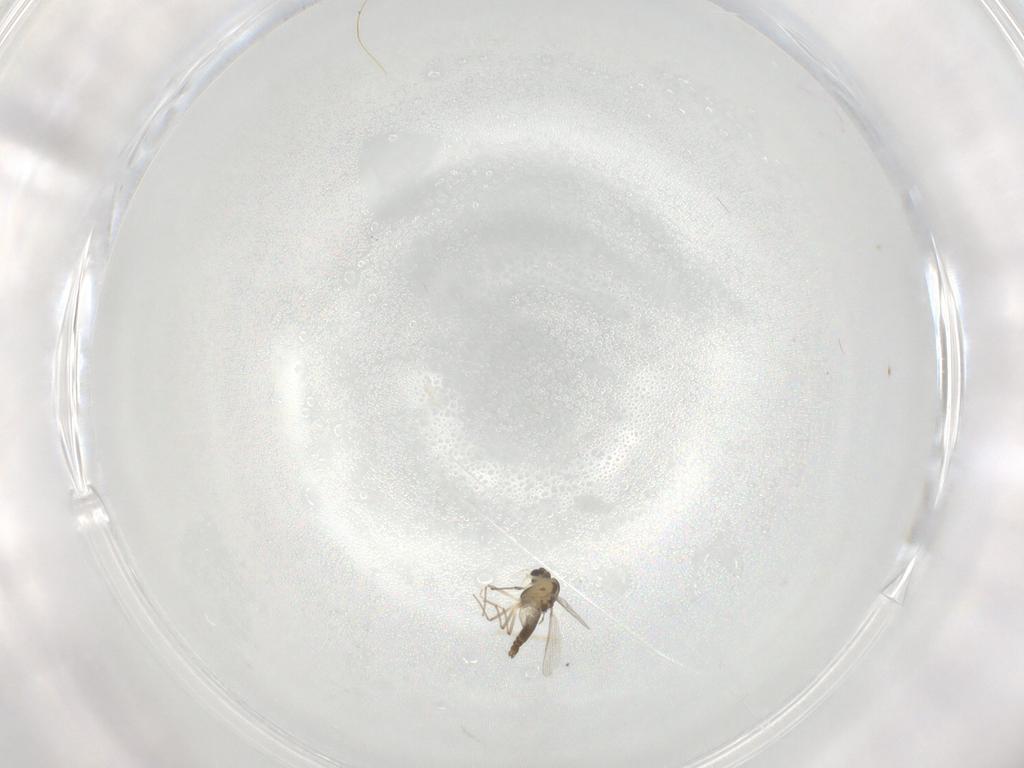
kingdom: Animalia
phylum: Arthropoda
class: Insecta
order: Diptera
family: Chironomidae
